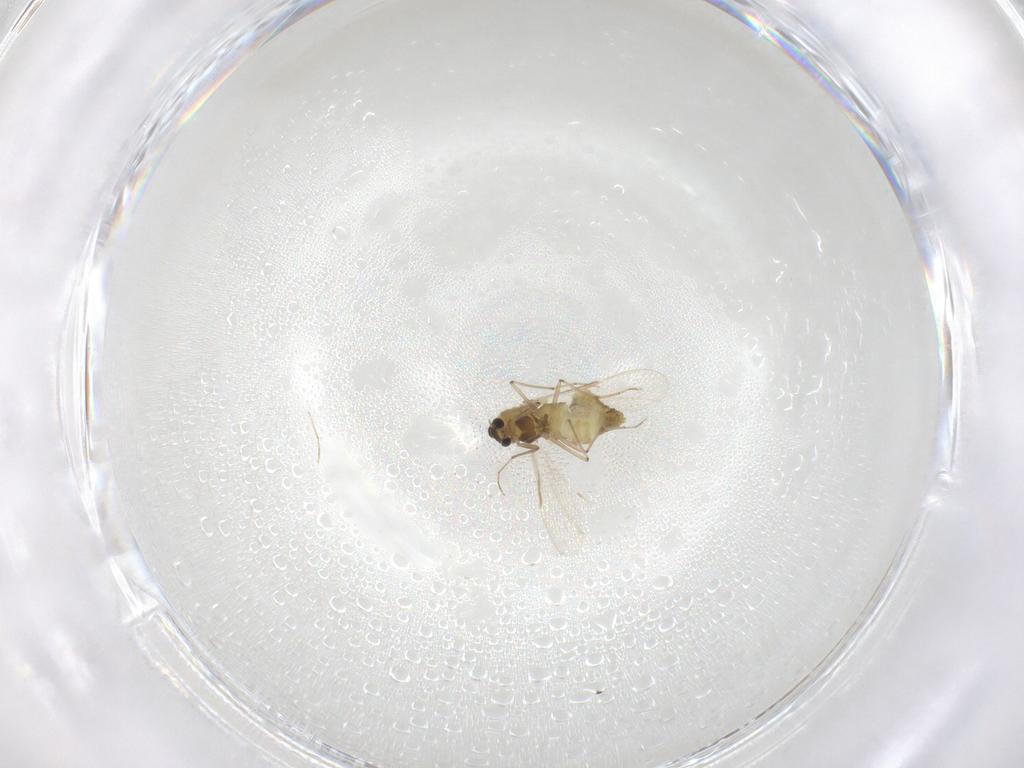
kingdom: Animalia
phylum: Arthropoda
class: Insecta
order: Diptera
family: Chironomidae
